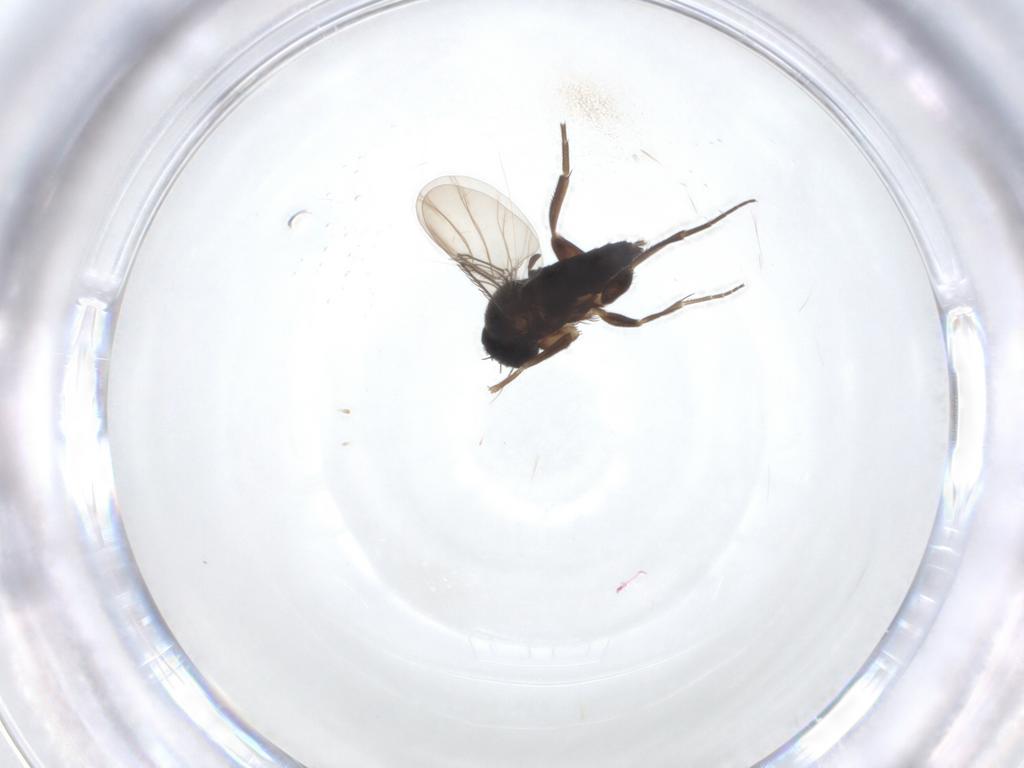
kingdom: Animalia
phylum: Arthropoda
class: Insecta
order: Diptera
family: Phoridae
